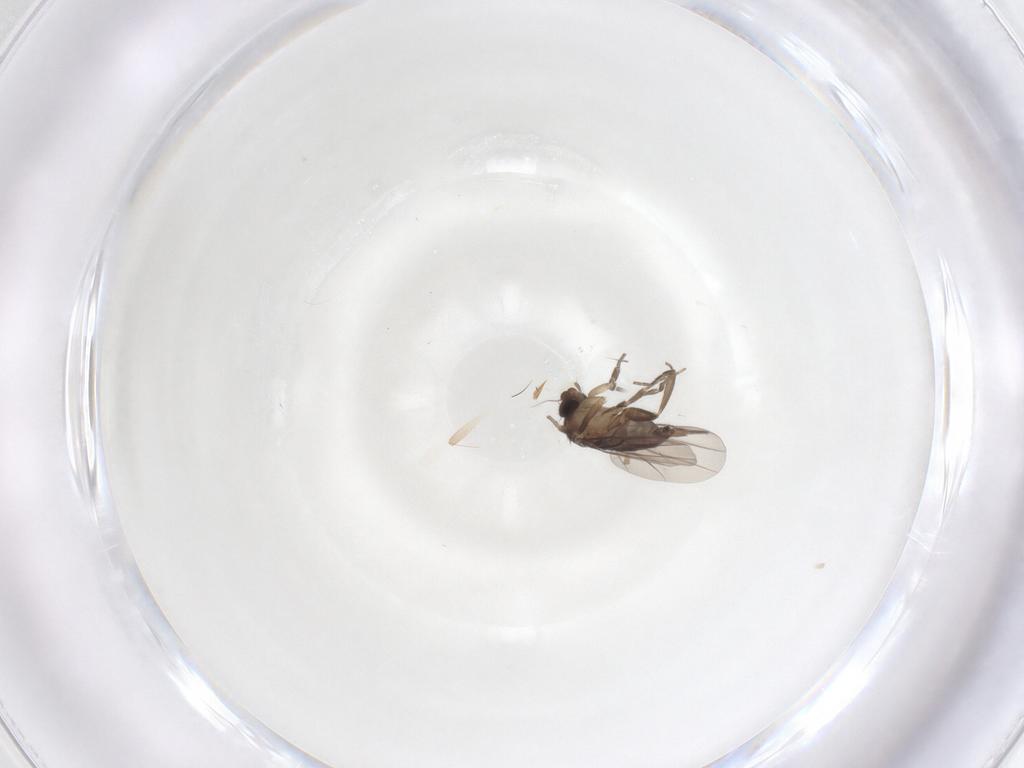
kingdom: Animalia
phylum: Arthropoda
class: Insecta
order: Diptera
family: Phoridae
